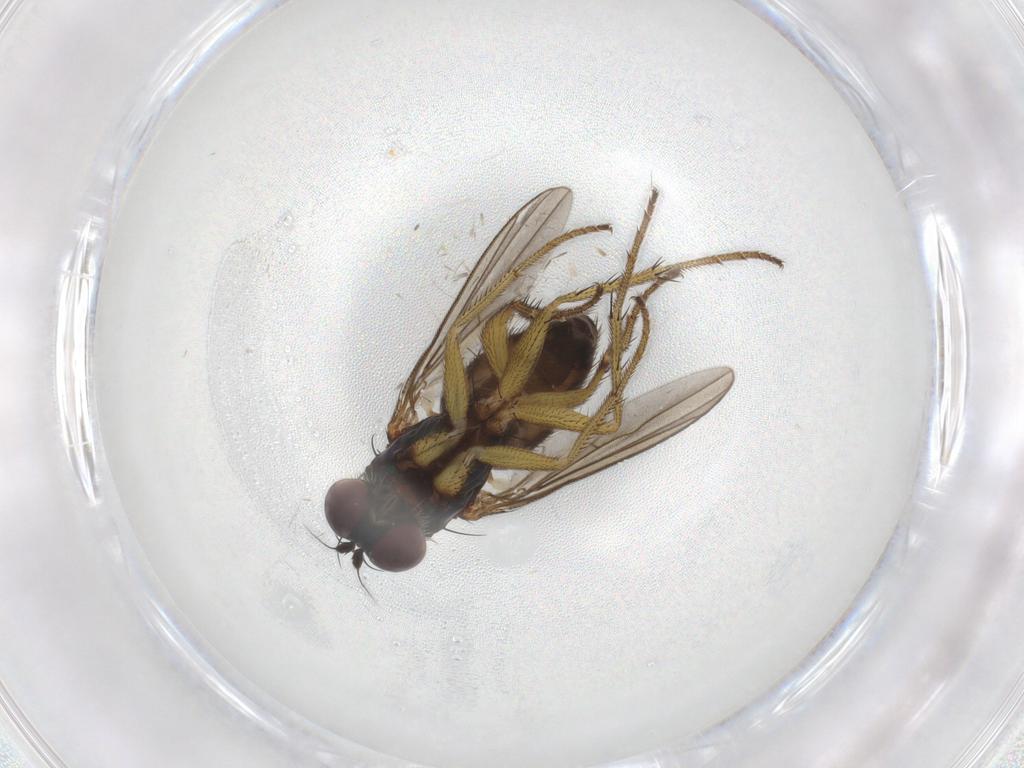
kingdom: Animalia
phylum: Arthropoda
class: Insecta
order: Diptera
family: Dolichopodidae
